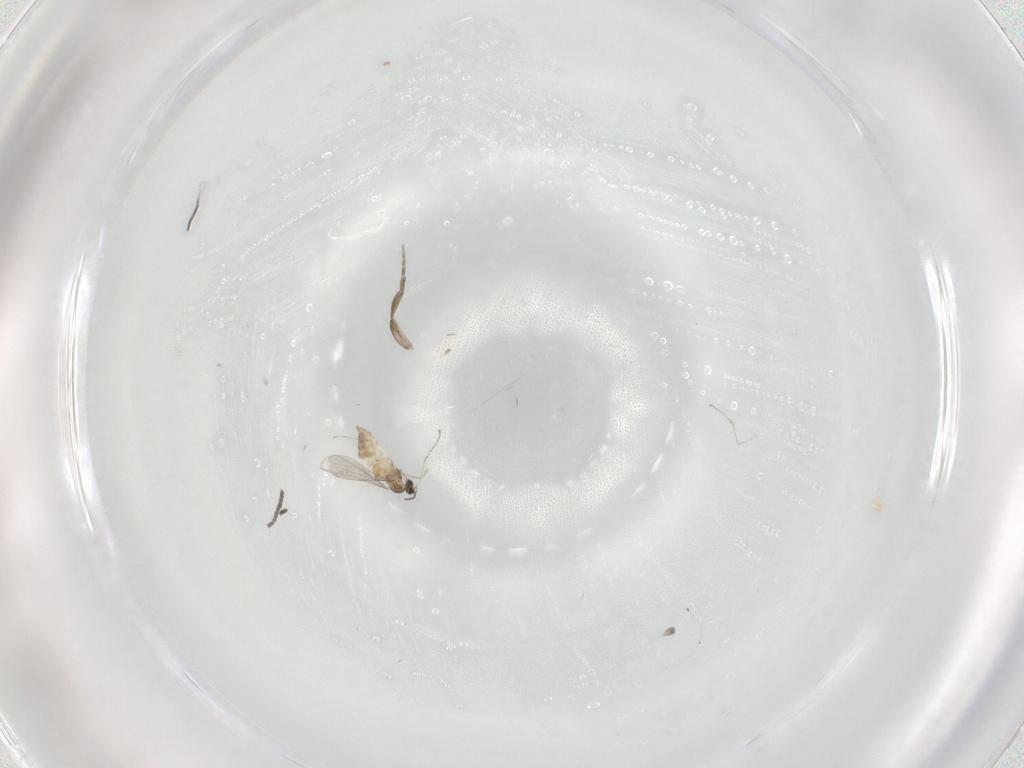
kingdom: Animalia
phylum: Arthropoda
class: Insecta
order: Diptera
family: Cecidomyiidae
